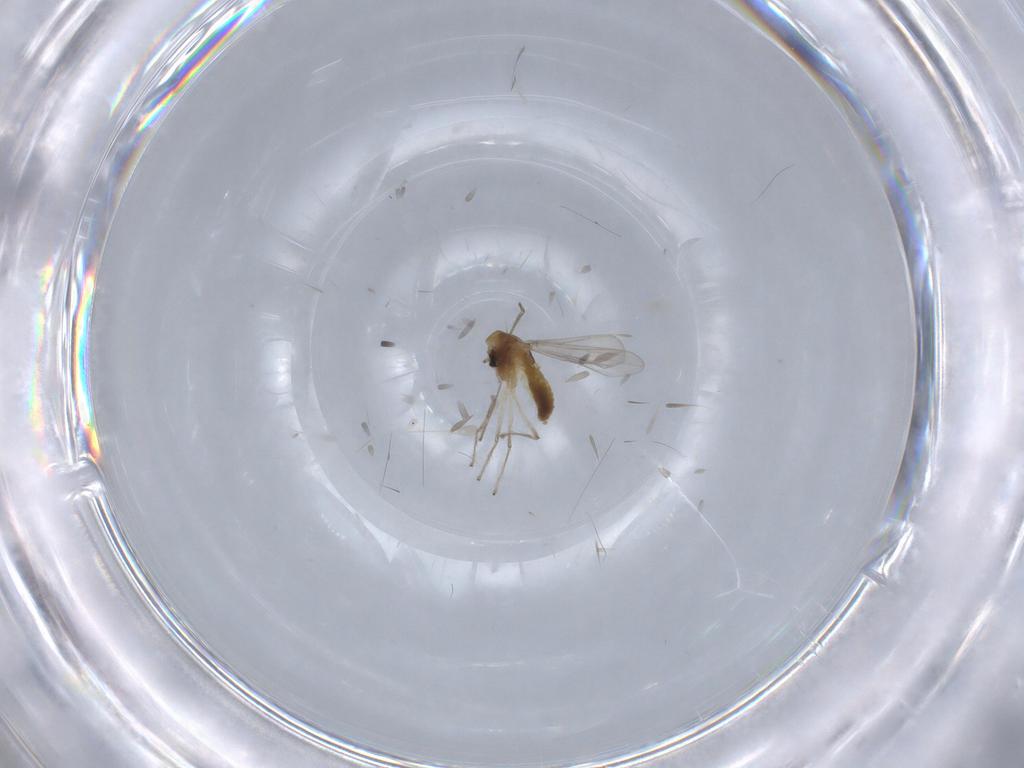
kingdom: Animalia
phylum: Arthropoda
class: Insecta
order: Diptera
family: Chironomidae
